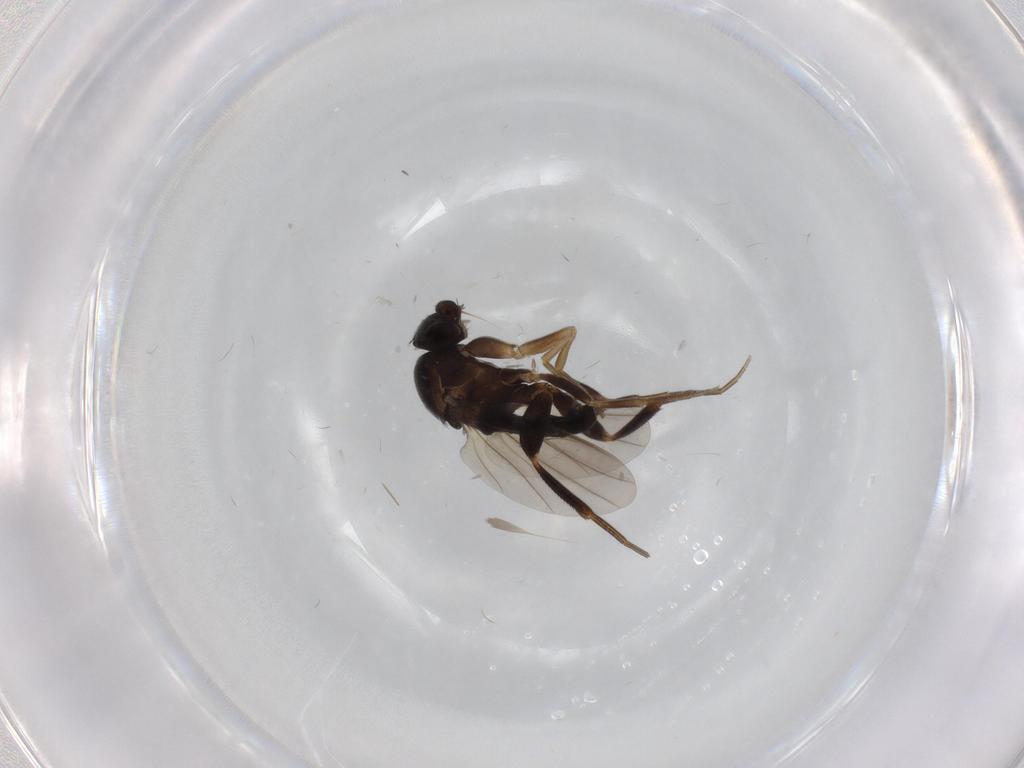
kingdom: Animalia
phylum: Arthropoda
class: Insecta
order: Diptera
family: Cecidomyiidae
